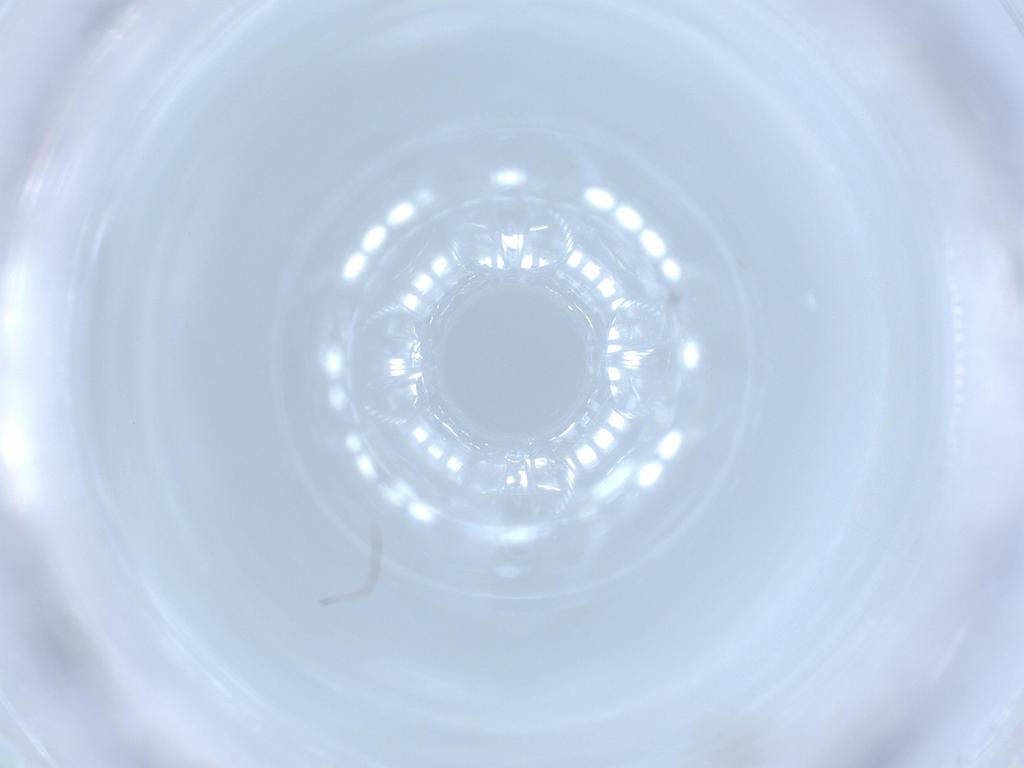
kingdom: Animalia
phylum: Arthropoda
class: Insecta
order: Diptera
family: Ceratopogonidae
